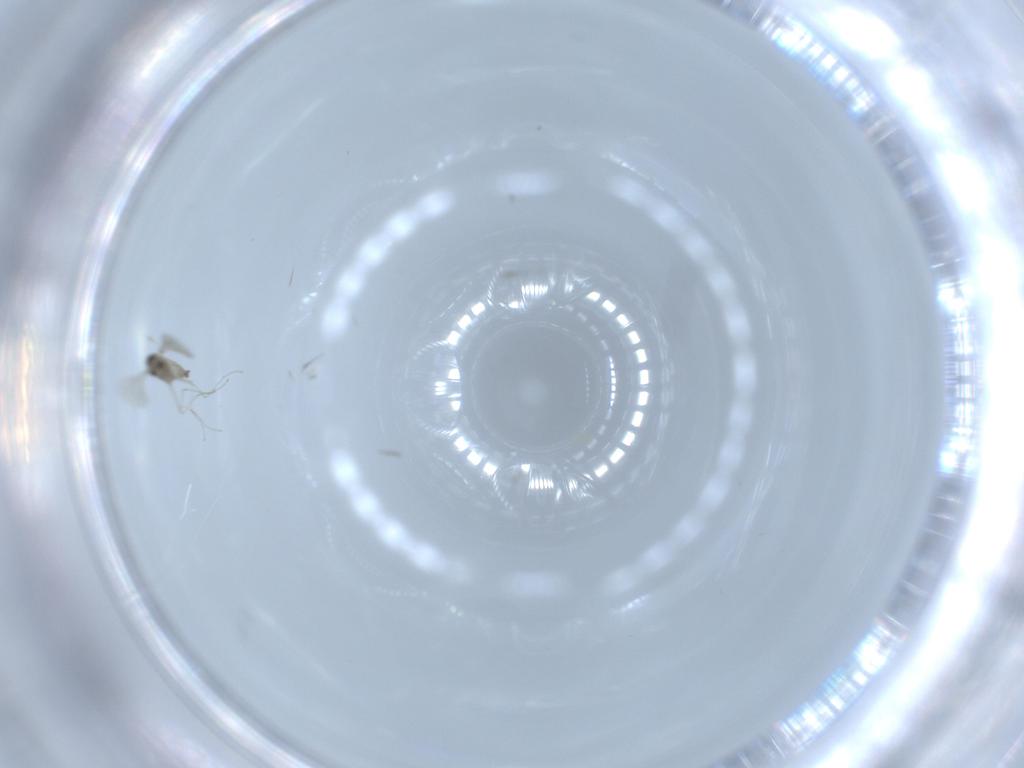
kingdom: Animalia
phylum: Arthropoda
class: Insecta
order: Diptera
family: Cecidomyiidae
